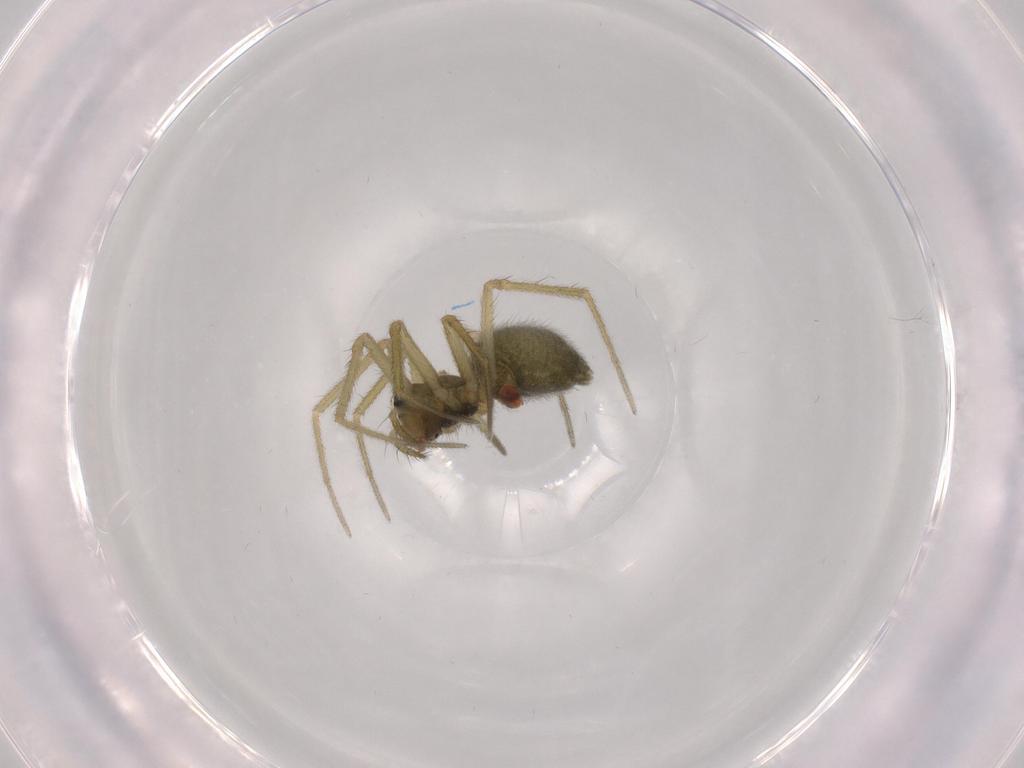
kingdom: Animalia
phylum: Arthropoda
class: Arachnida
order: Araneae
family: Linyphiidae
